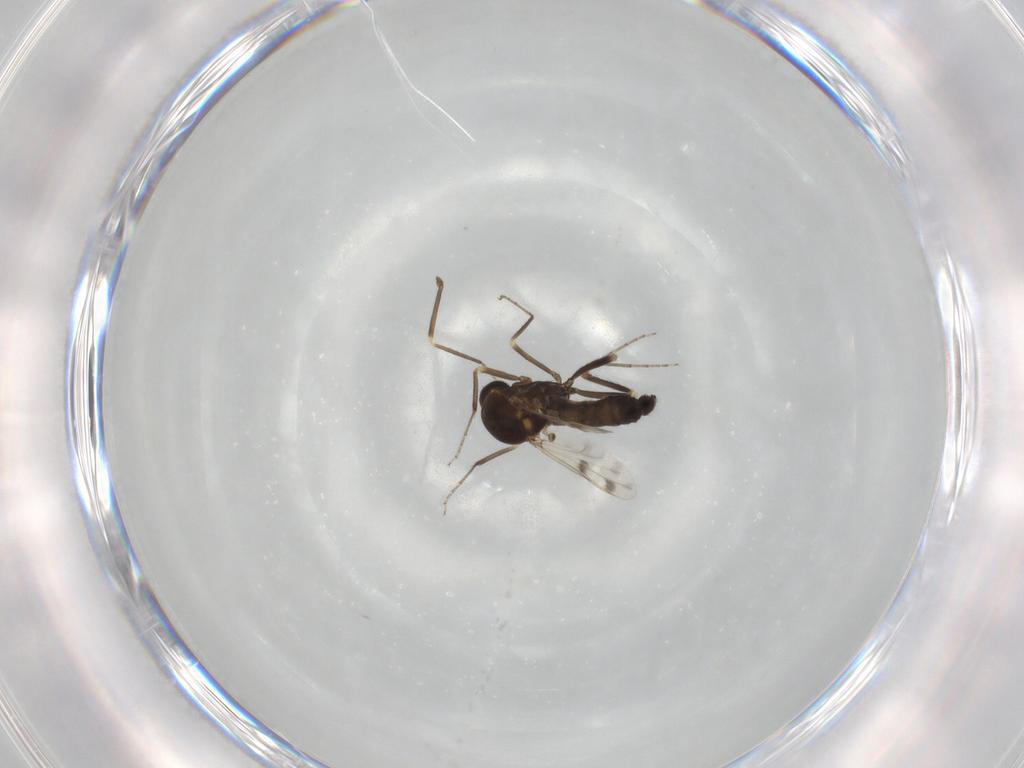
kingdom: Animalia
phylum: Arthropoda
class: Insecta
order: Diptera
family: Ceratopogonidae
